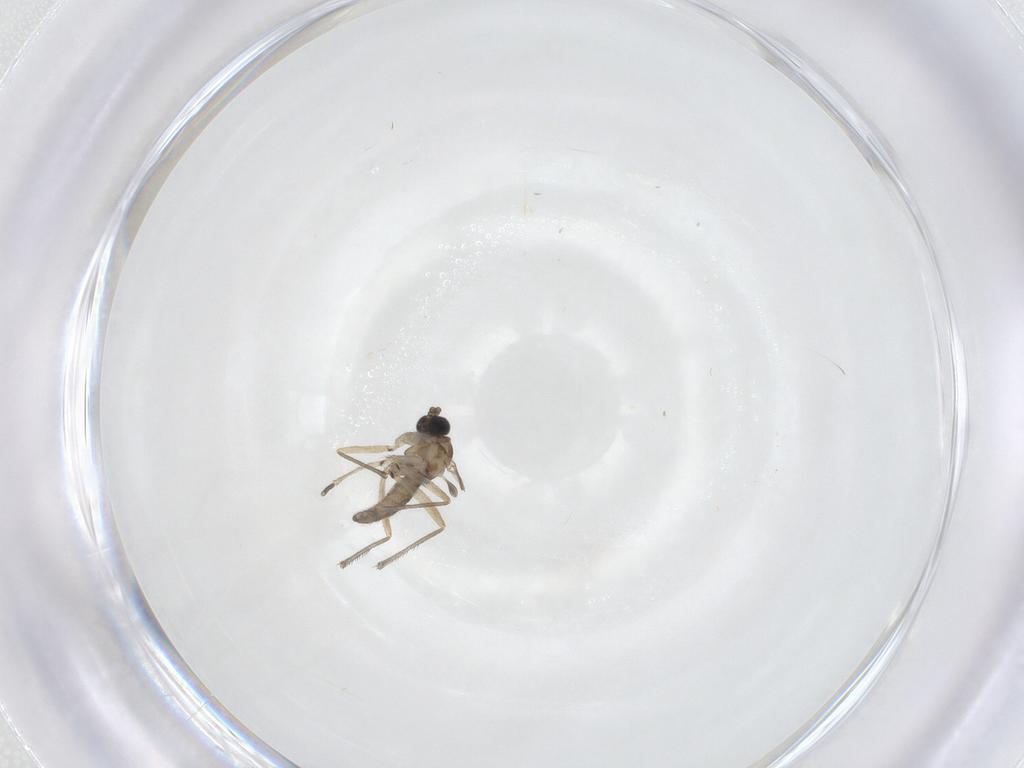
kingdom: Animalia
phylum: Arthropoda
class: Insecta
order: Diptera
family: Sciaridae
